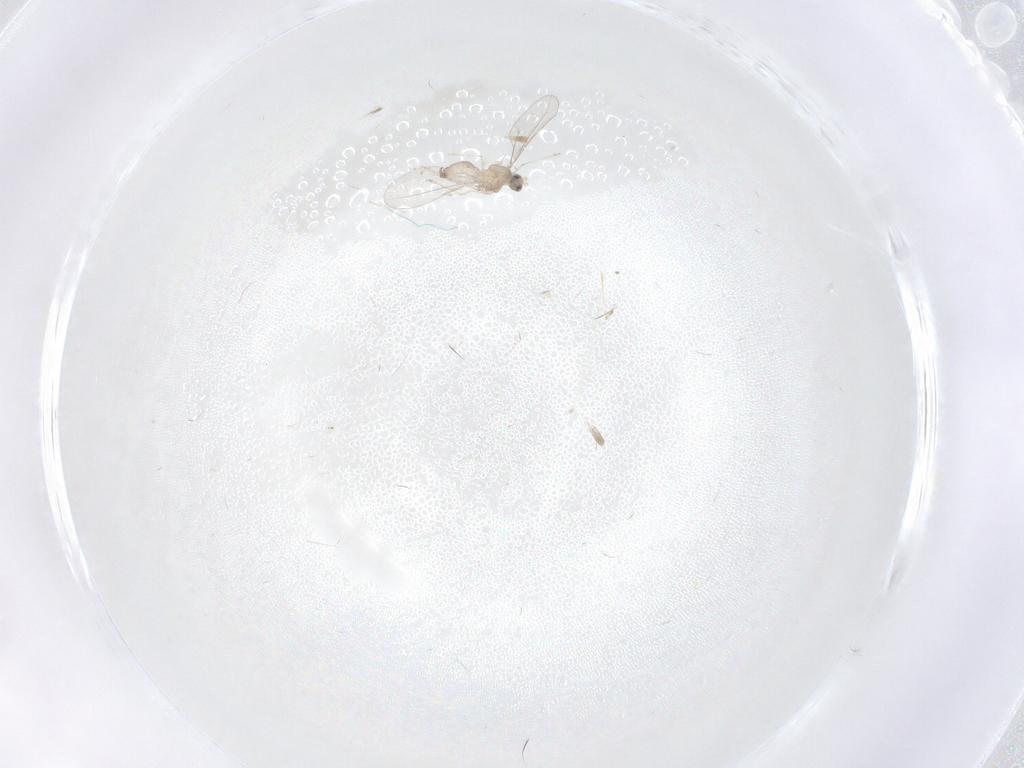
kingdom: Animalia
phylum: Arthropoda
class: Insecta
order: Diptera
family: Cecidomyiidae
